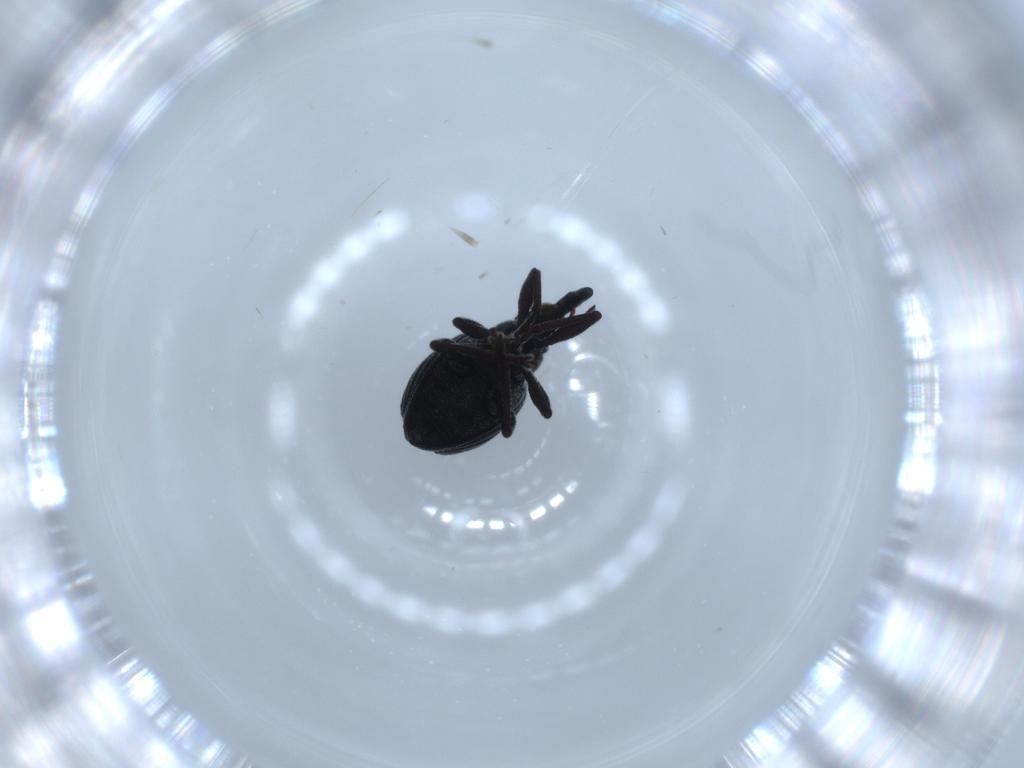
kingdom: Animalia
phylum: Arthropoda
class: Insecta
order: Coleoptera
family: Brentidae
